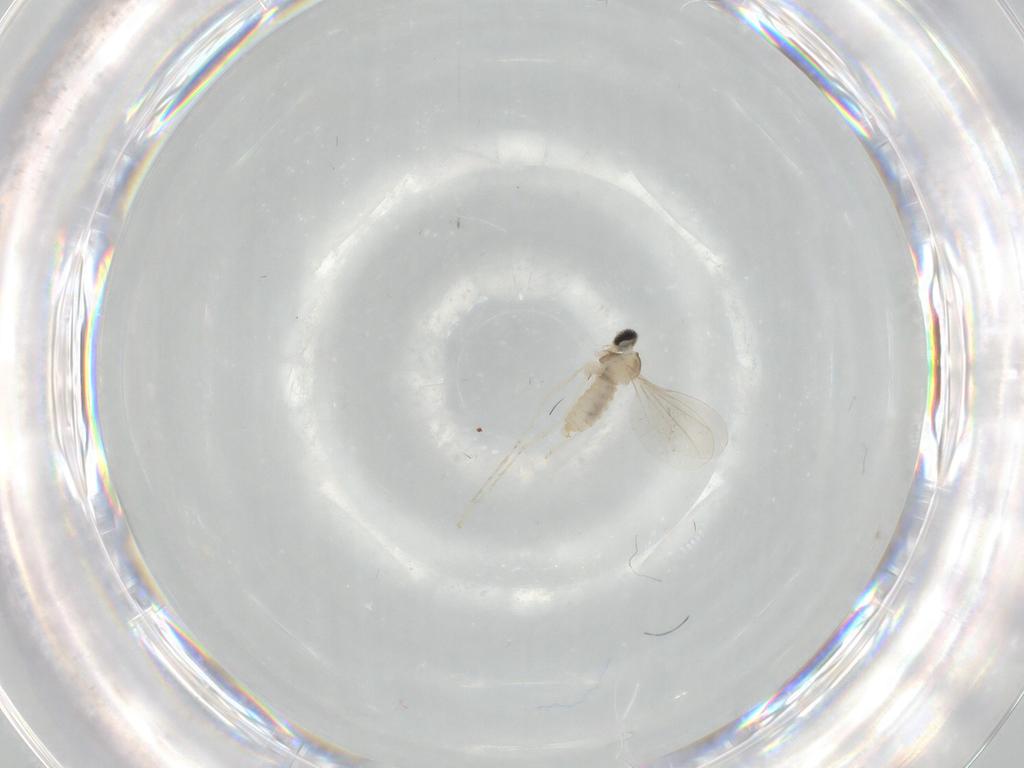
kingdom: Animalia
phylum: Arthropoda
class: Insecta
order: Diptera
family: Cecidomyiidae
